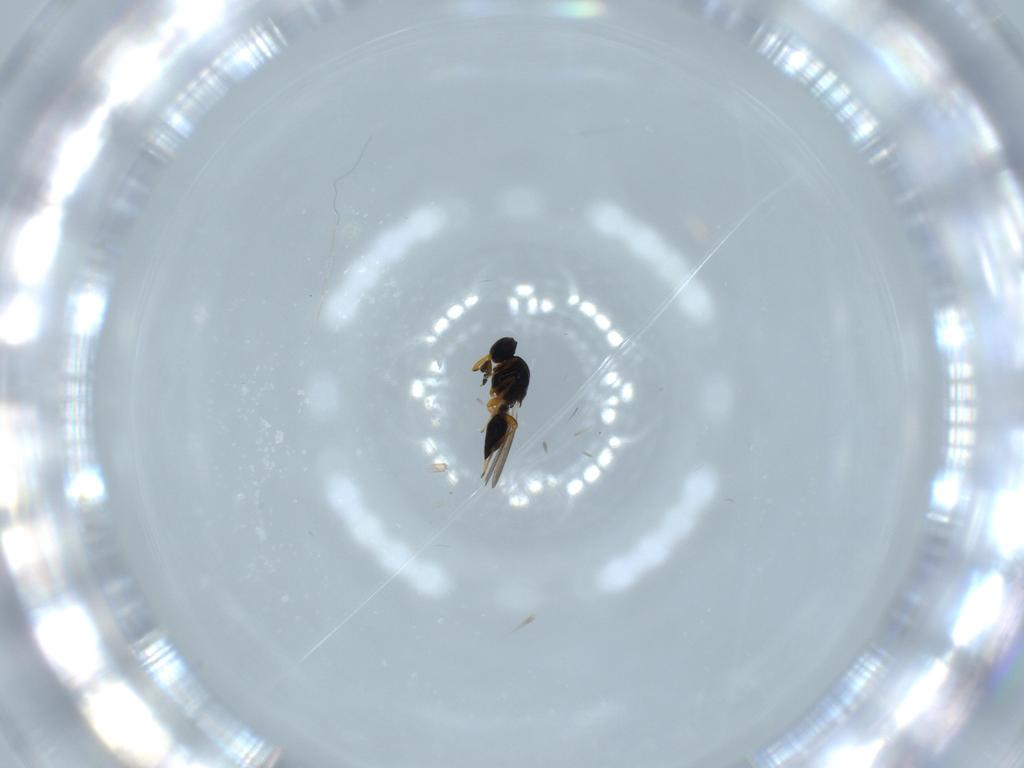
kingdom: Animalia
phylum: Arthropoda
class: Insecta
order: Hymenoptera
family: Platygastridae
